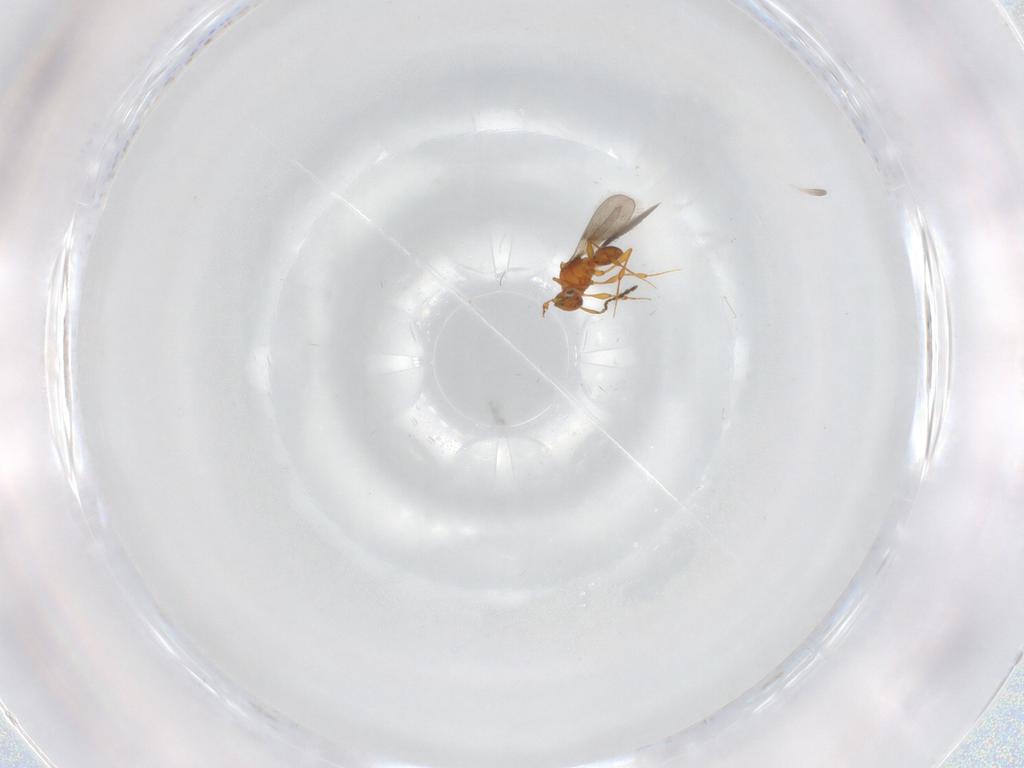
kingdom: Animalia
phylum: Arthropoda
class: Insecta
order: Hymenoptera
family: Platygastridae
